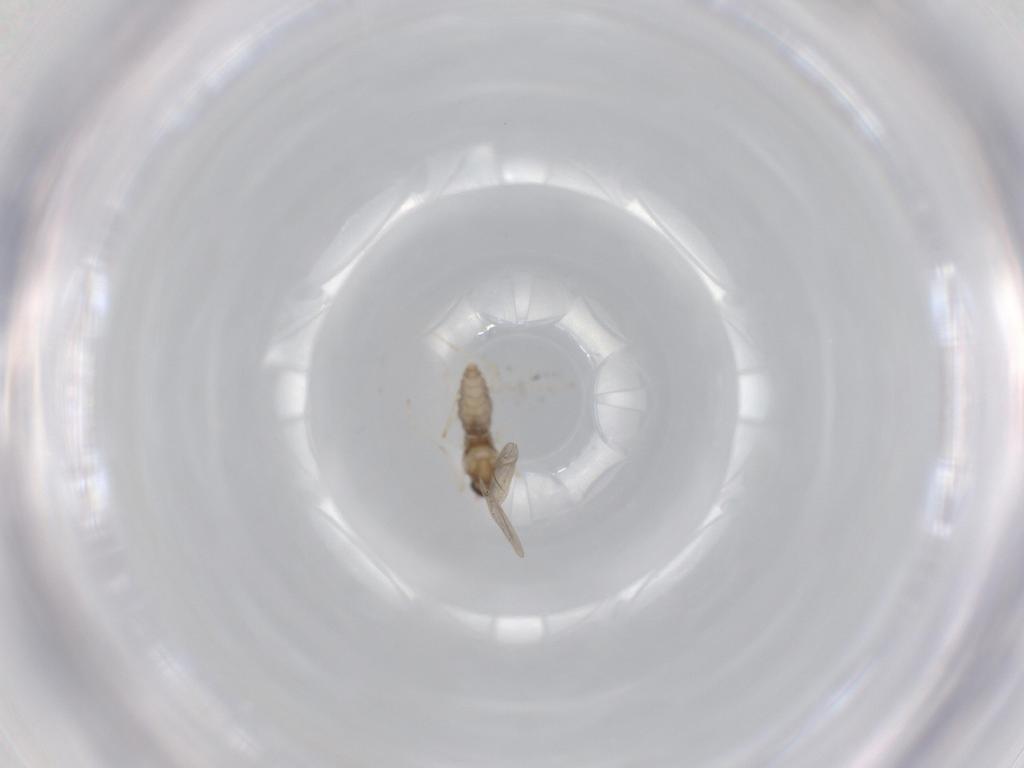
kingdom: Animalia
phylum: Arthropoda
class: Insecta
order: Diptera
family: Cecidomyiidae
